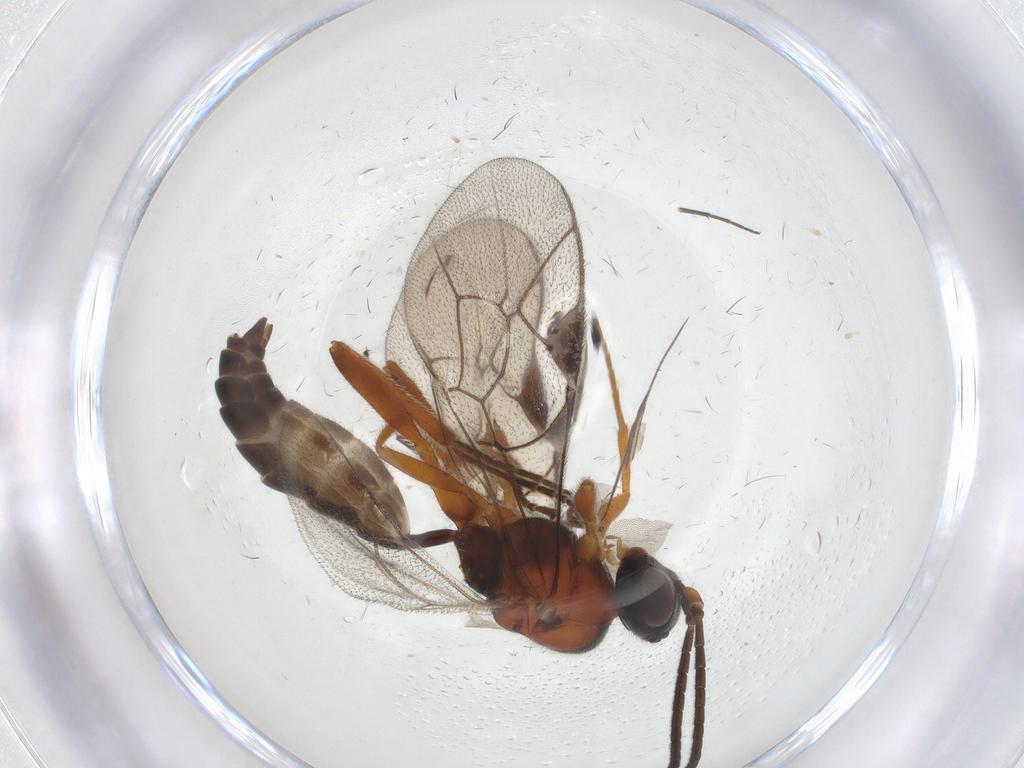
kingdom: Animalia
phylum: Arthropoda
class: Insecta
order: Hymenoptera
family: Ichneumonidae
